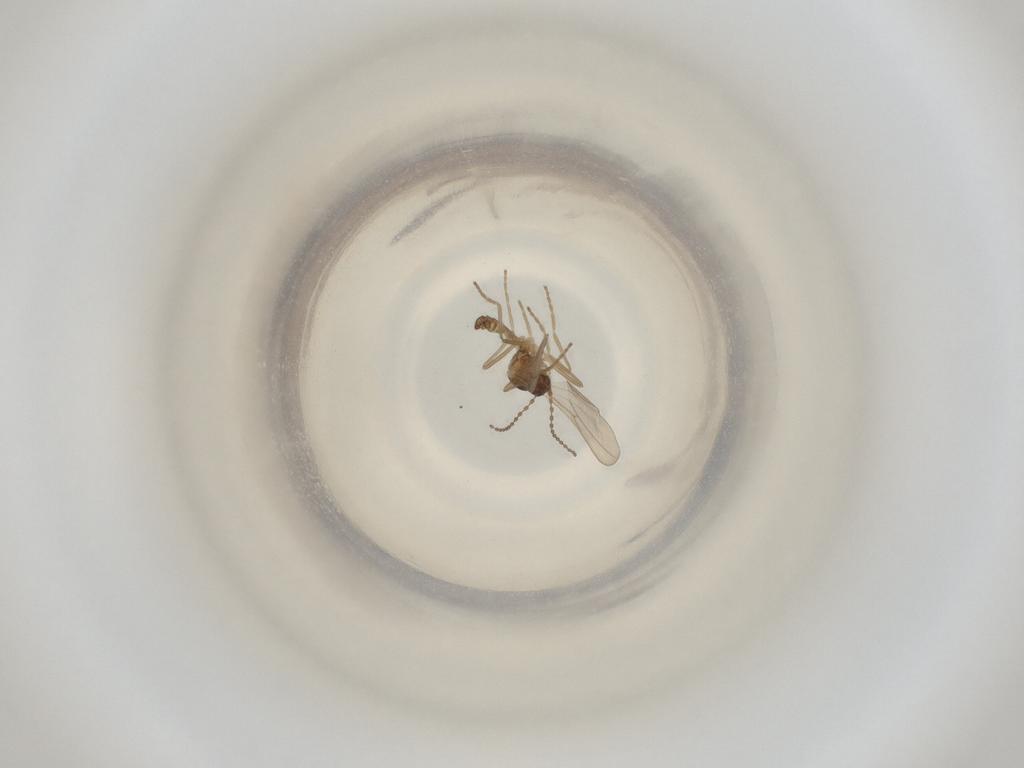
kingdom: Animalia
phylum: Arthropoda
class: Insecta
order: Diptera
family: Cecidomyiidae
